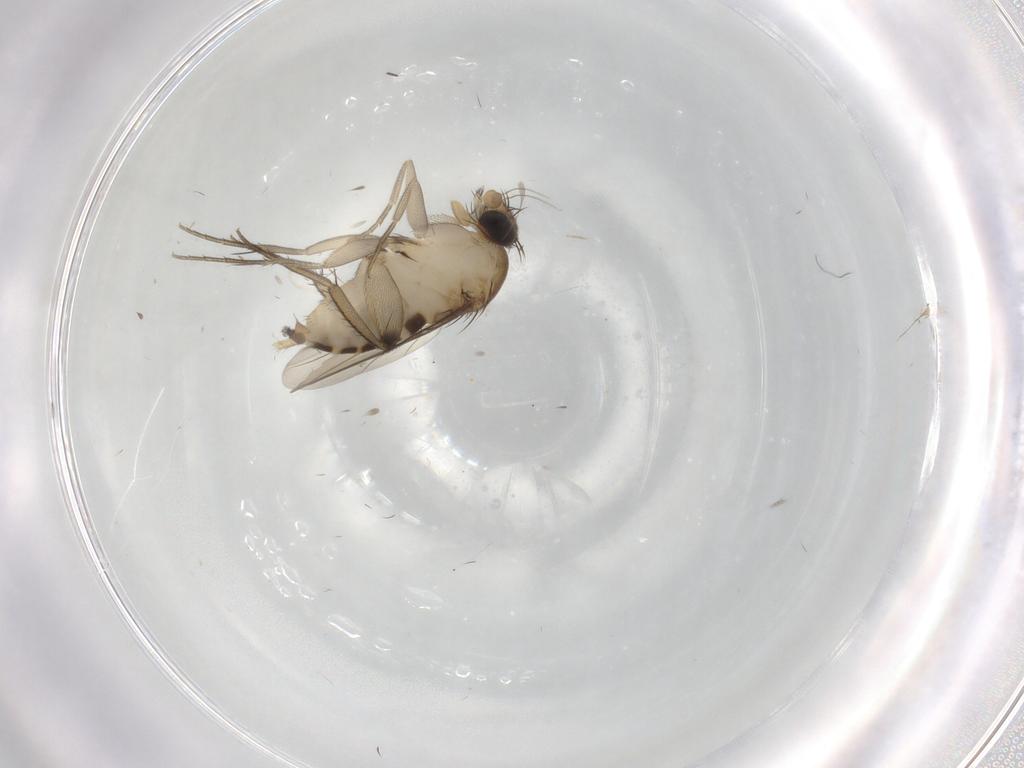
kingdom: Animalia
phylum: Arthropoda
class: Insecta
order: Diptera
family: Phoridae
